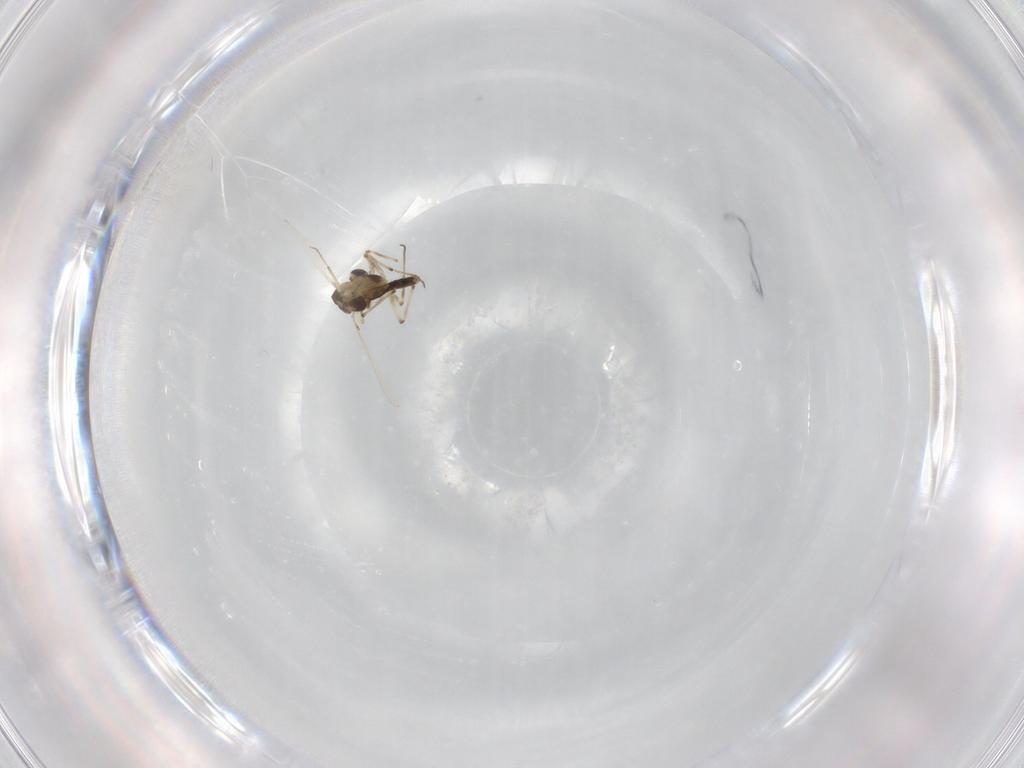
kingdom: Animalia
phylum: Arthropoda
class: Insecta
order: Diptera
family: Chironomidae
